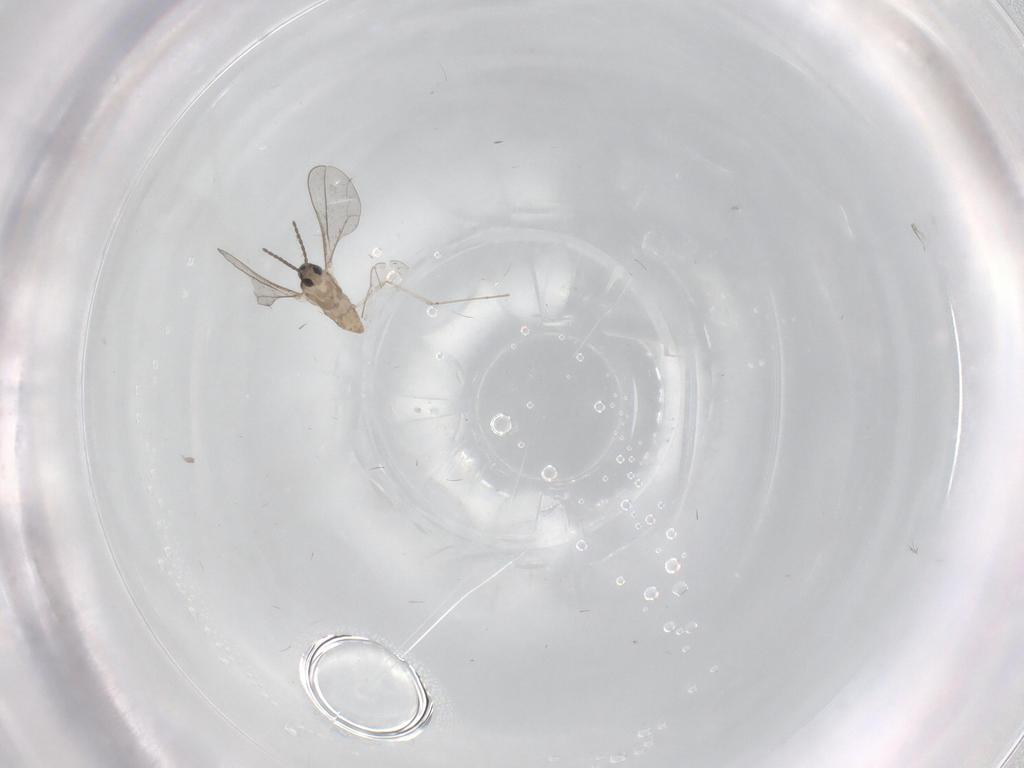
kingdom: Animalia
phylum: Arthropoda
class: Insecta
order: Diptera
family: Cecidomyiidae
